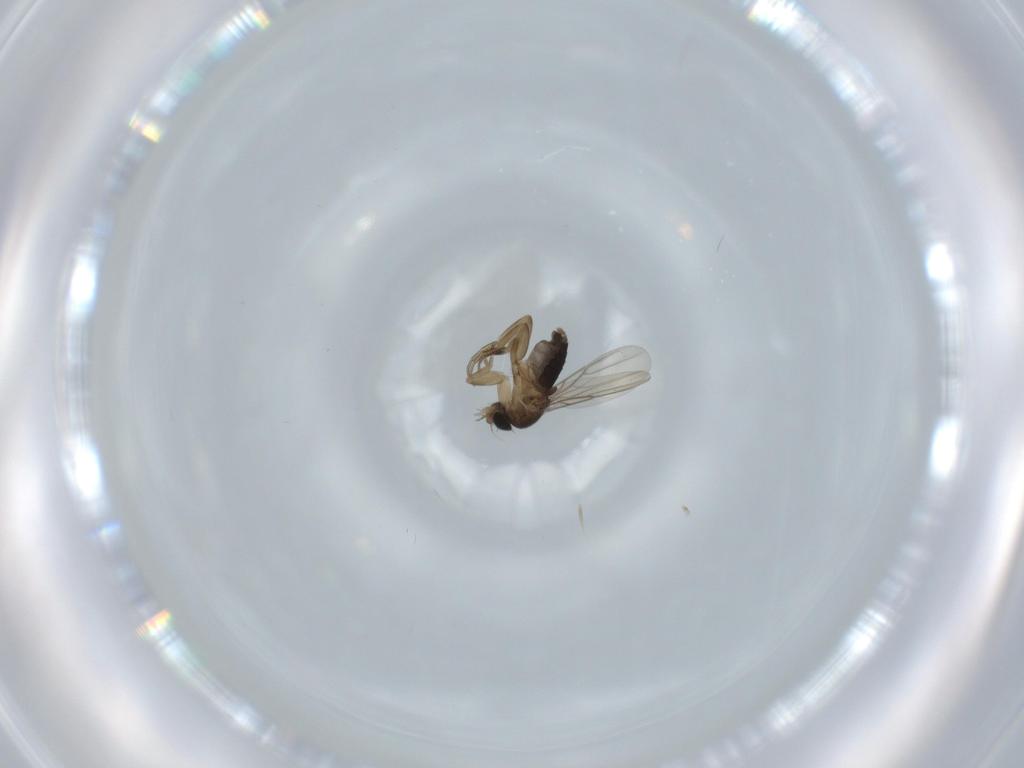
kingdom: Animalia
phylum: Arthropoda
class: Insecta
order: Diptera
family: Phoridae
